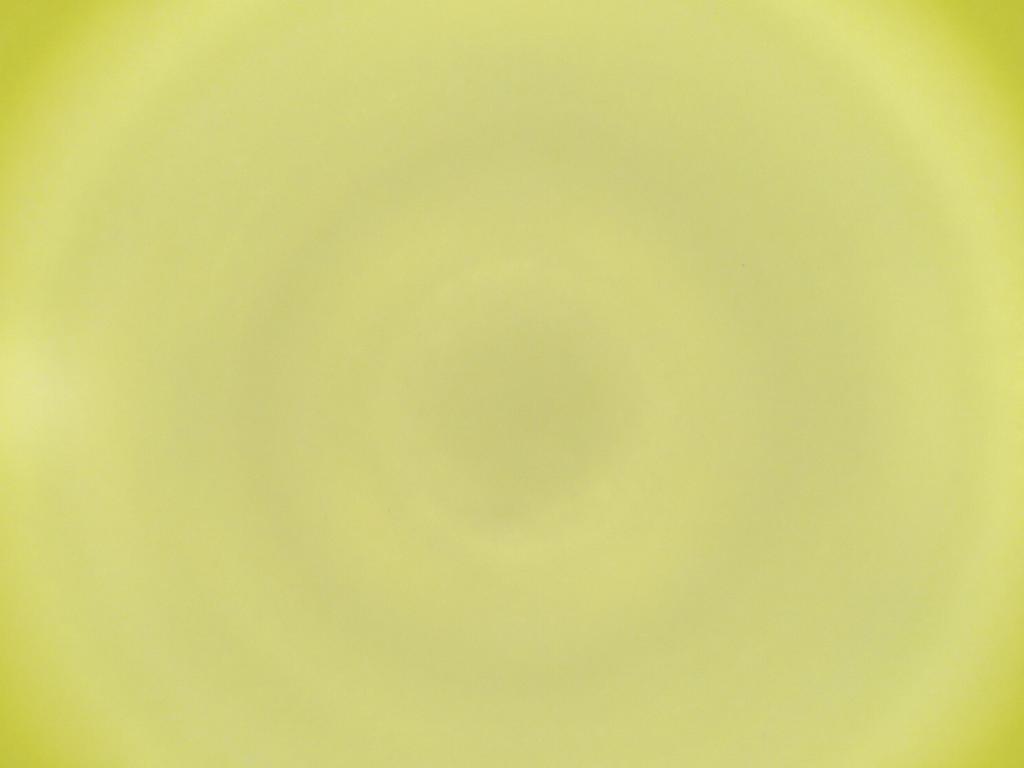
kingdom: Animalia
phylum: Arthropoda
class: Insecta
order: Diptera
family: Cecidomyiidae
